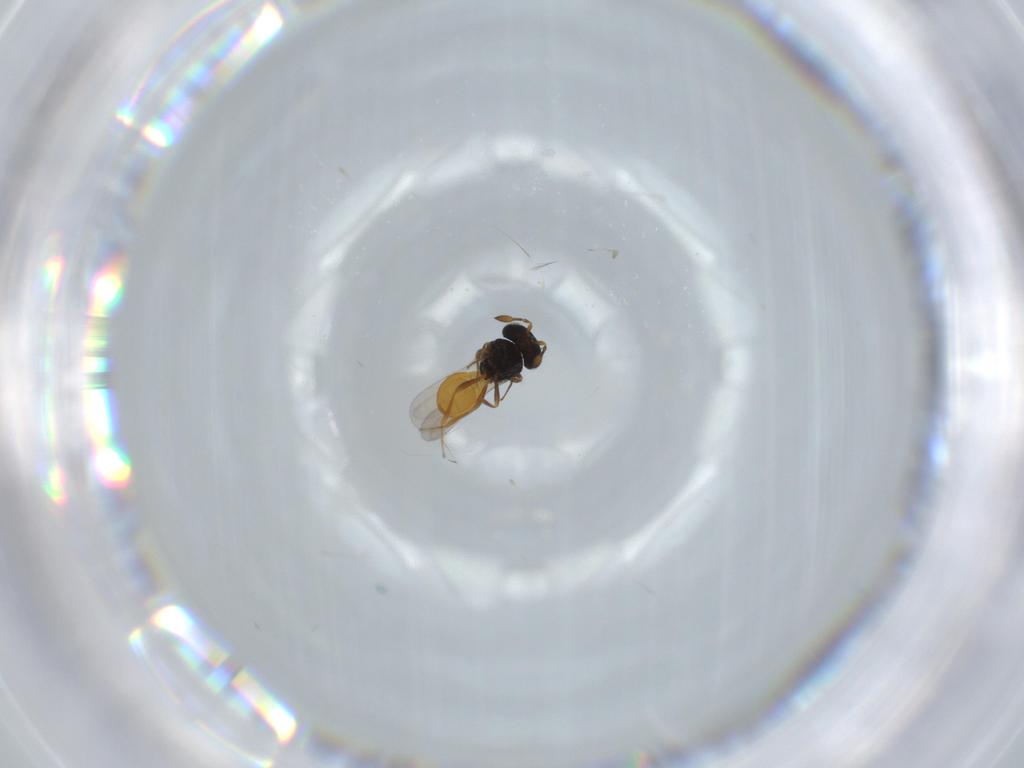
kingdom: Animalia
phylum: Arthropoda
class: Insecta
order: Hymenoptera
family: Scelionidae
